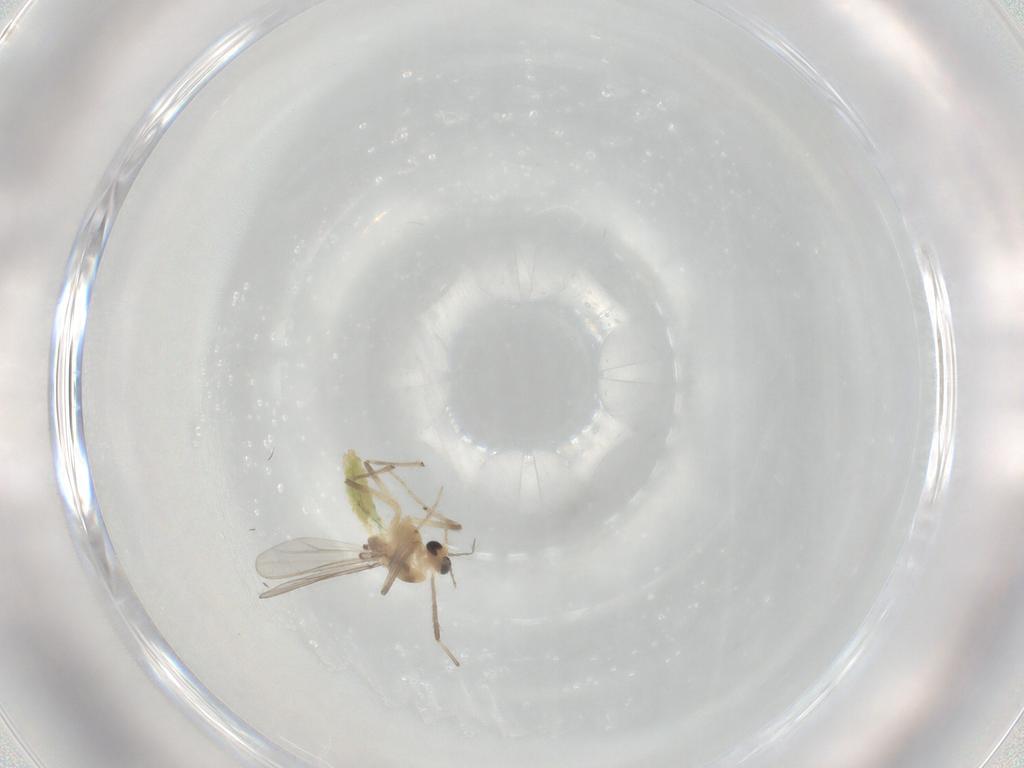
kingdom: Animalia
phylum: Arthropoda
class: Insecta
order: Diptera
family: Chironomidae
